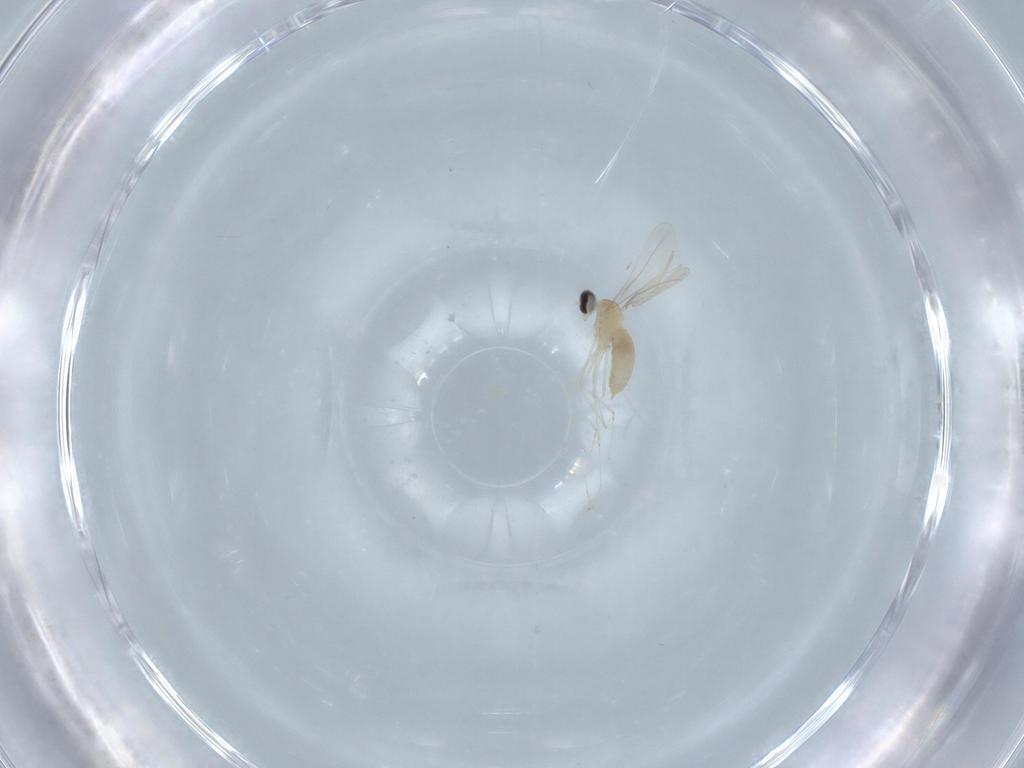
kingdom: Animalia
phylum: Arthropoda
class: Insecta
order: Diptera
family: Cecidomyiidae
